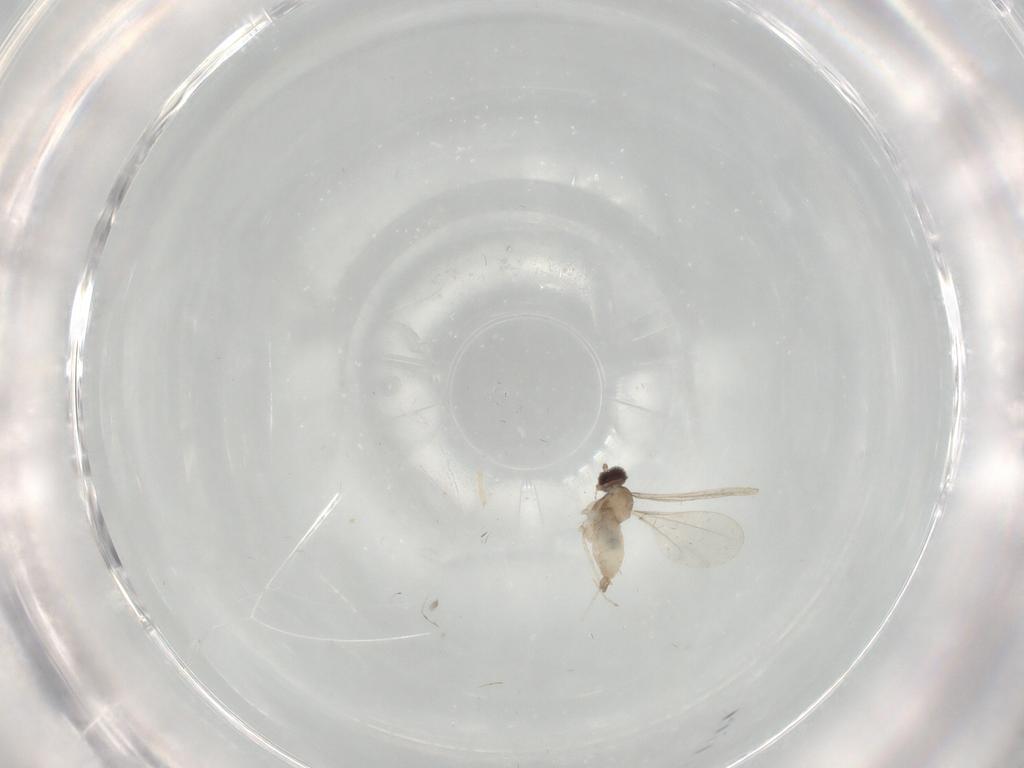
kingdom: Animalia
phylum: Arthropoda
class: Insecta
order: Diptera
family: Cecidomyiidae
